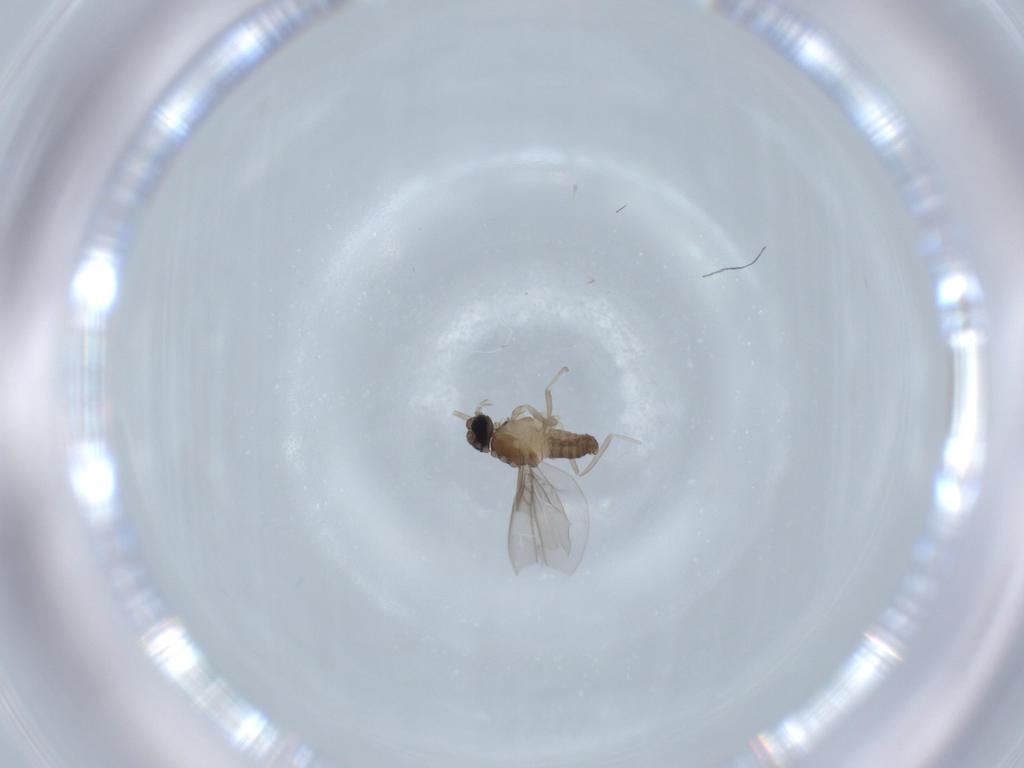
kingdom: Animalia
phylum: Arthropoda
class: Insecta
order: Diptera
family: Cecidomyiidae
